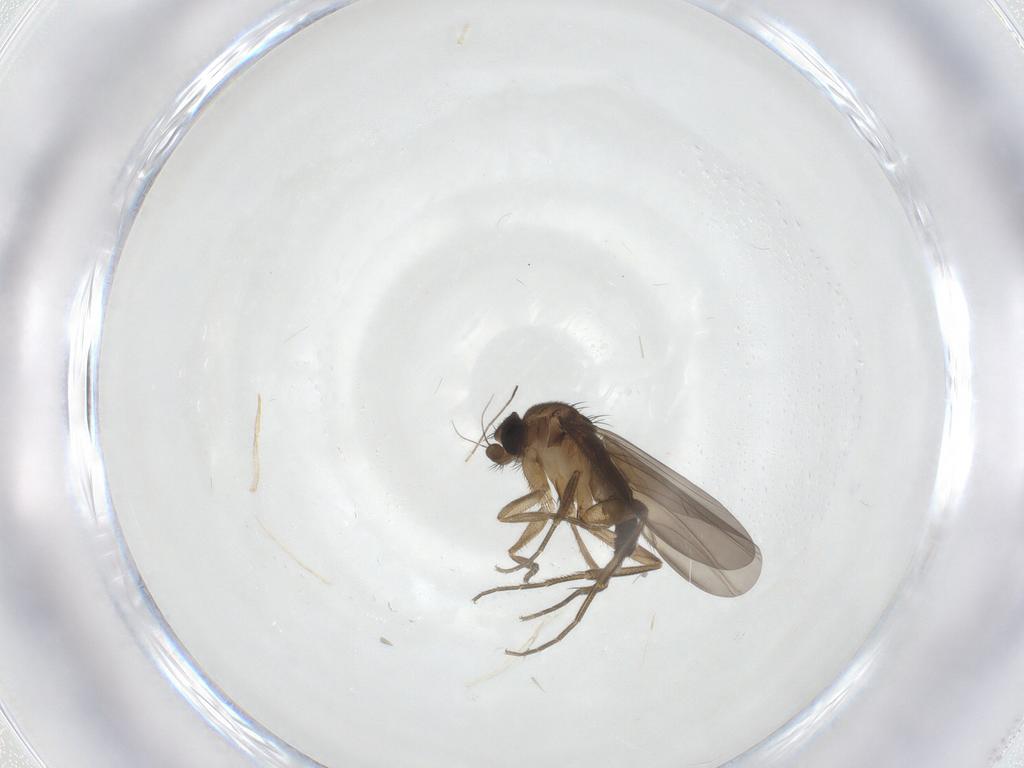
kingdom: Animalia
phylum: Arthropoda
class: Insecta
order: Diptera
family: Phoridae
